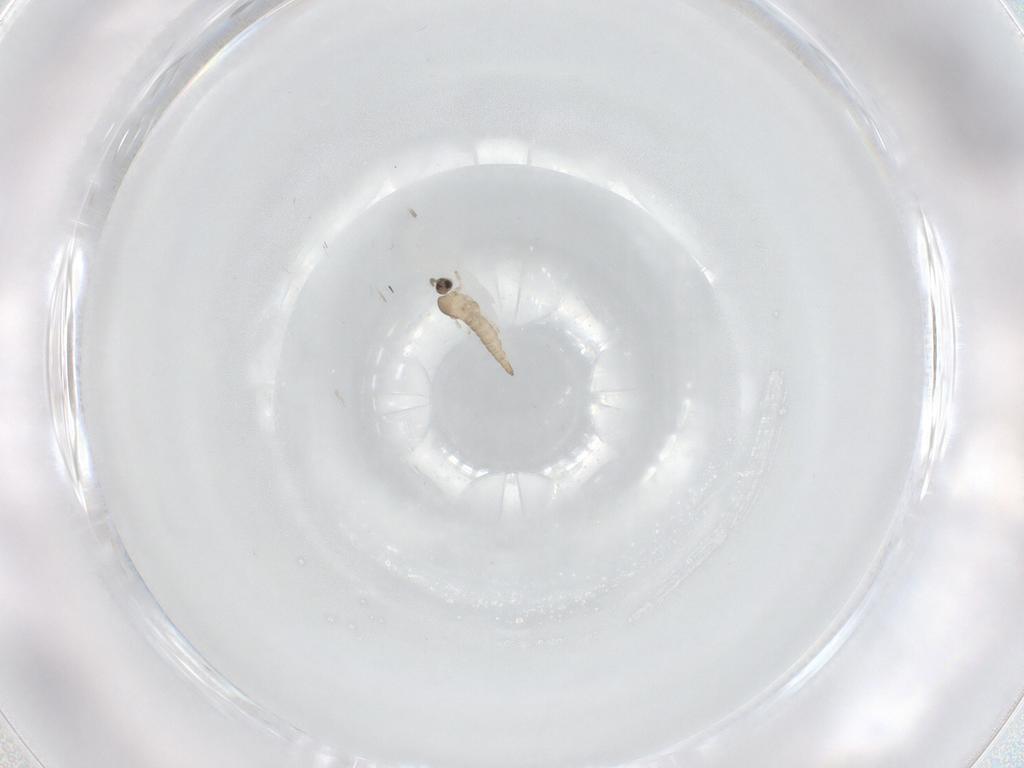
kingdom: Animalia
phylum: Arthropoda
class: Insecta
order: Diptera
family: Cecidomyiidae
